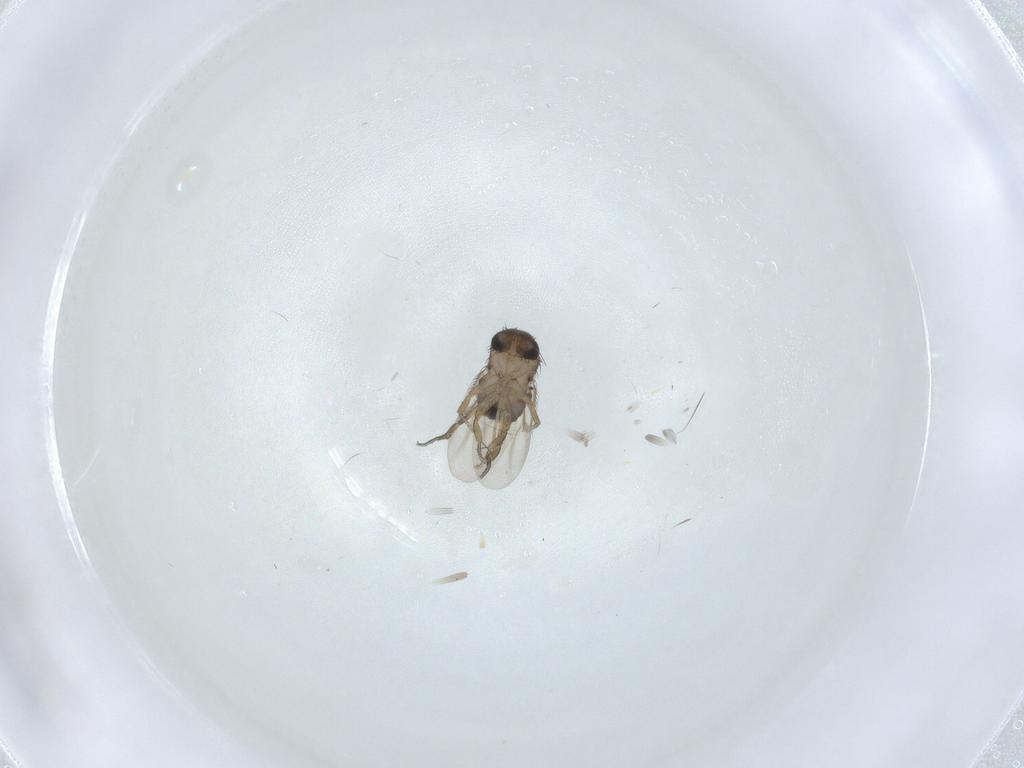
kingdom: Animalia
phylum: Arthropoda
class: Insecta
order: Diptera
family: Phoridae
